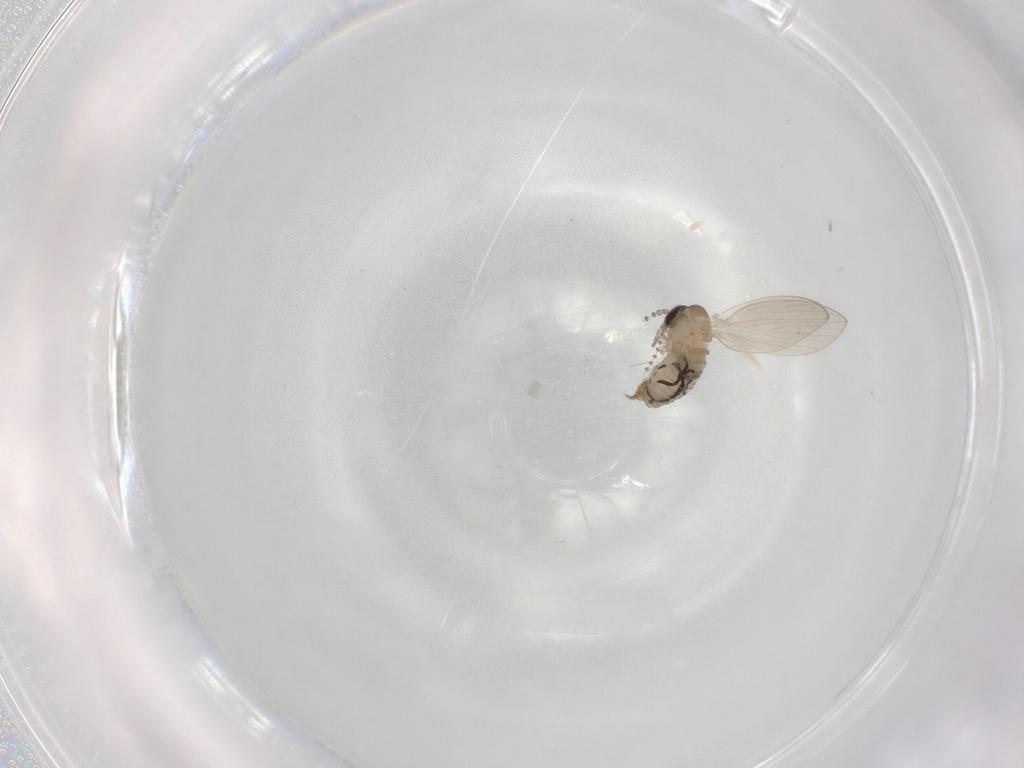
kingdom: Animalia
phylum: Arthropoda
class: Insecta
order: Diptera
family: Psychodidae
